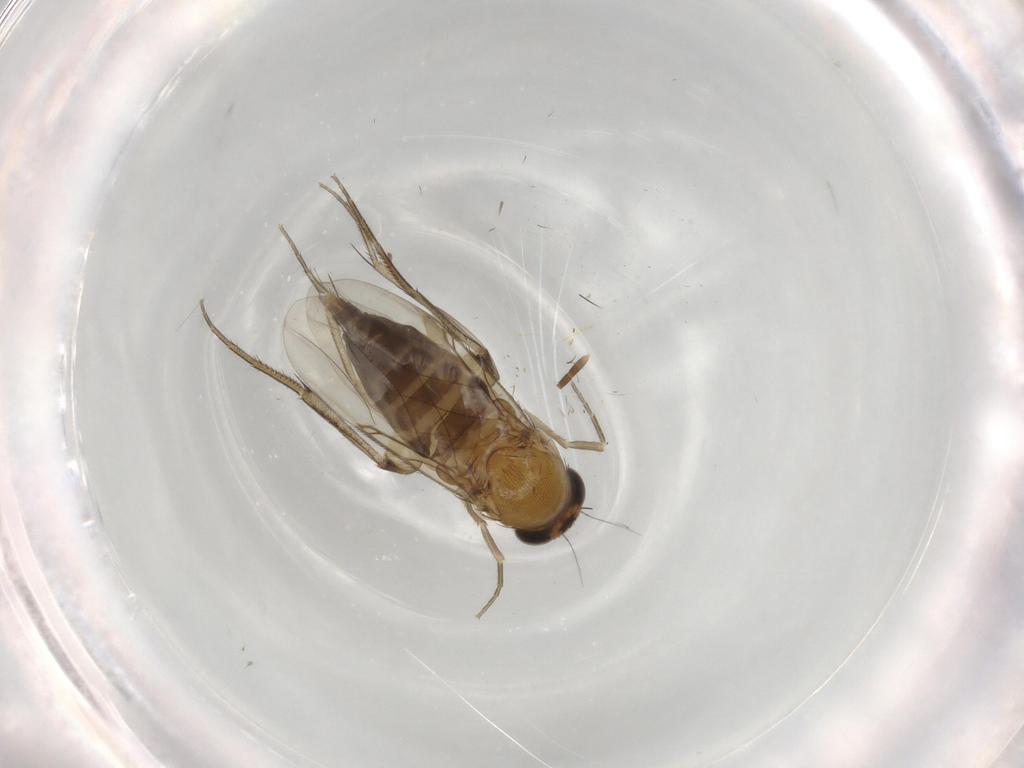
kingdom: Animalia
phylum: Arthropoda
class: Insecta
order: Diptera
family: Phoridae
